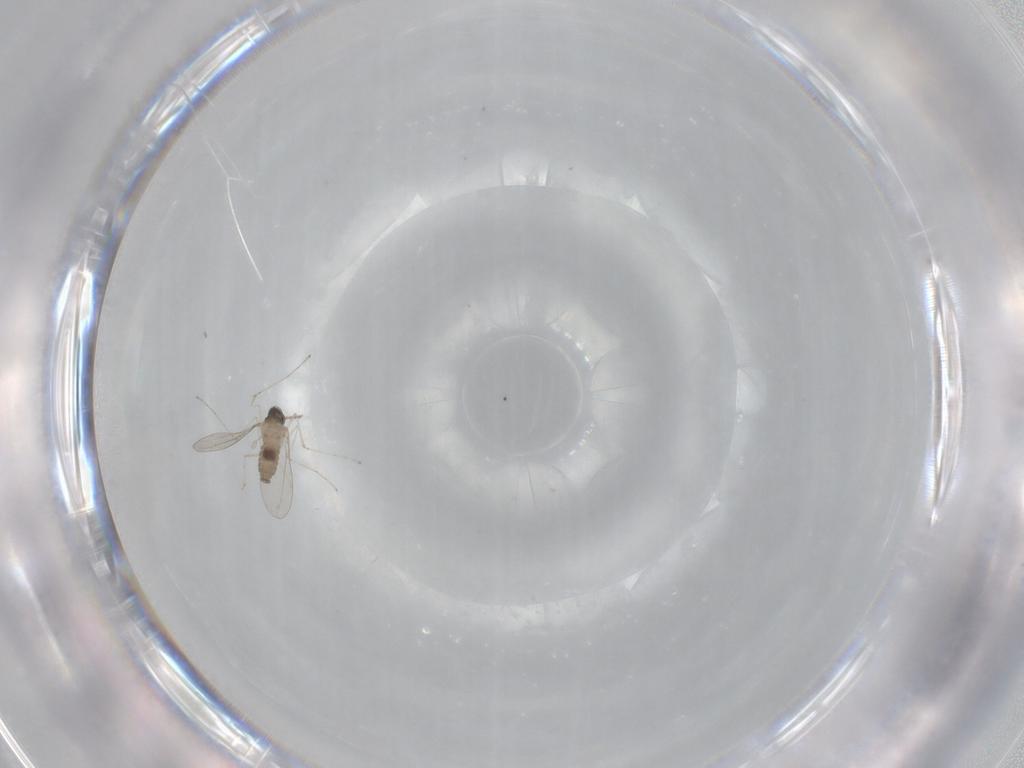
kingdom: Animalia
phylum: Arthropoda
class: Insecta
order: Diptera
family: Cecidomyiidae
